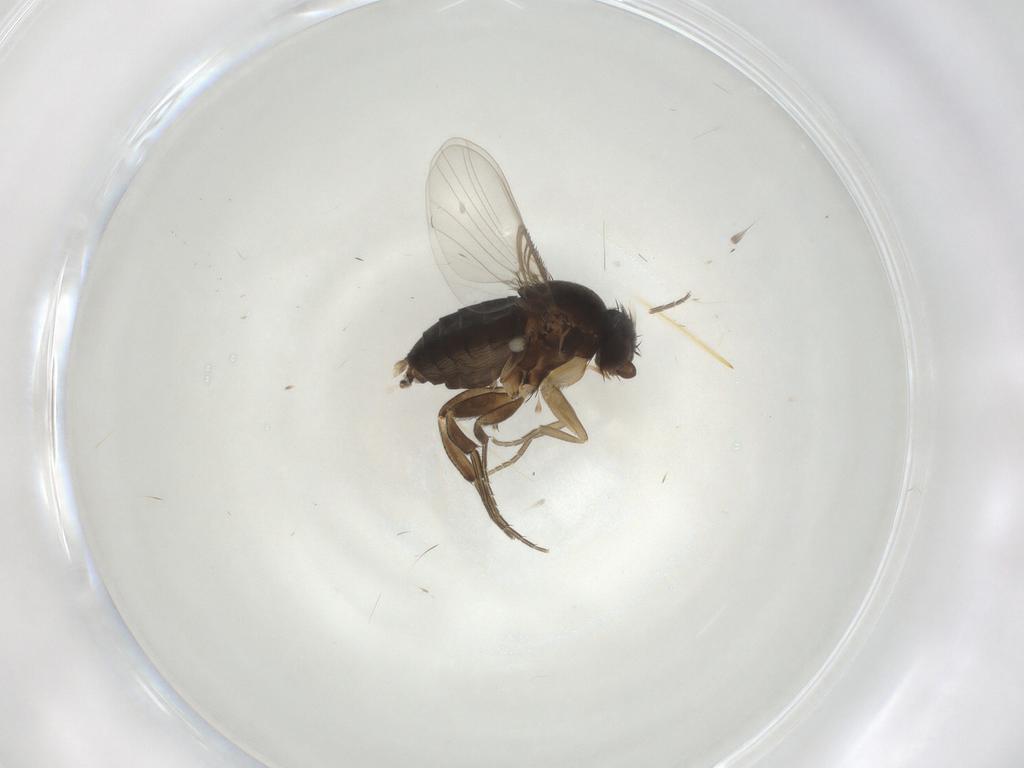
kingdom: Animalia
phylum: Arthropoda
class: Insecta
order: Diptera
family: Phoridae
